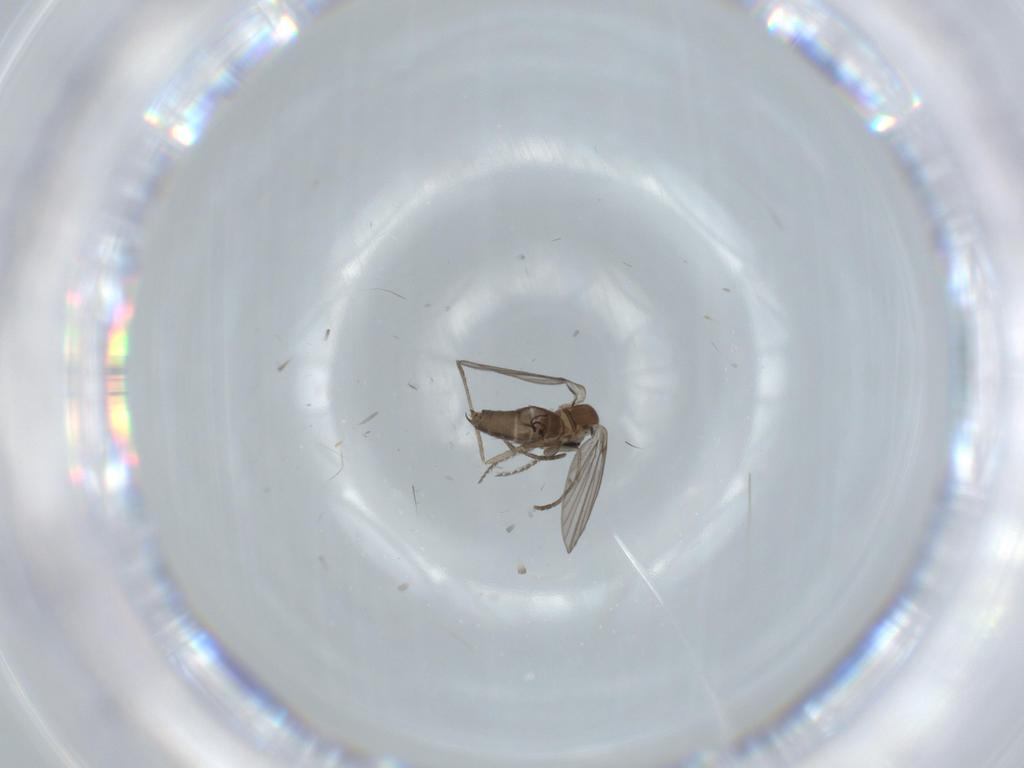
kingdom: Animalia
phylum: Arthropoda
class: Insecta
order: Diptera
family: Psychodidae
